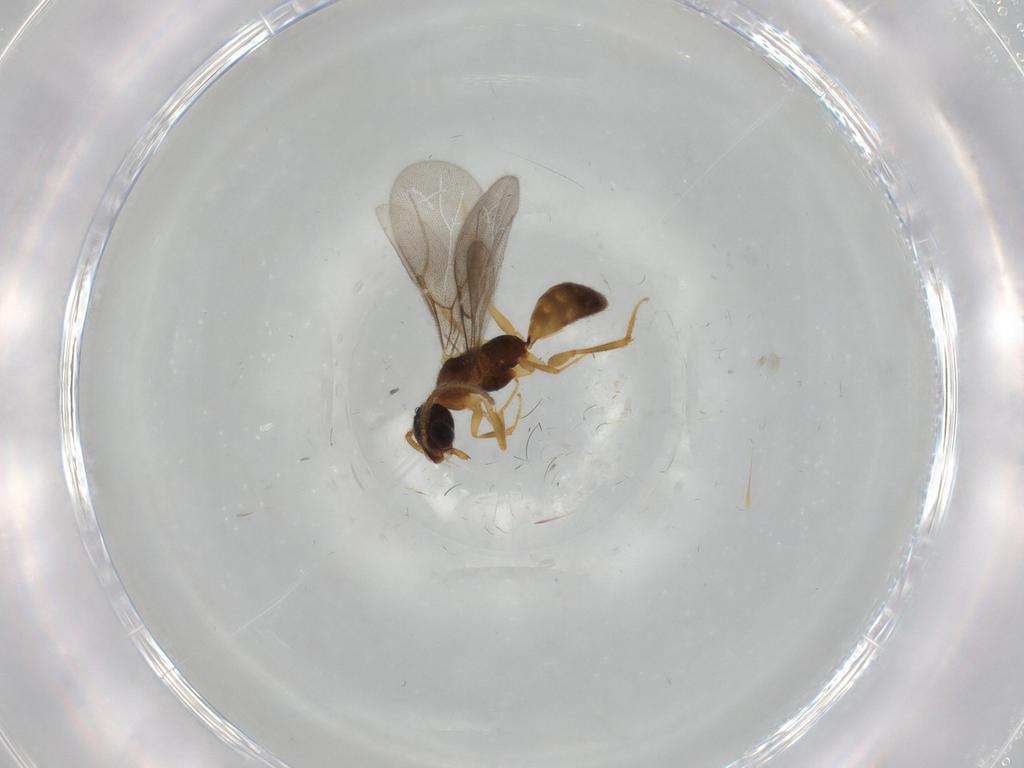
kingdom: Animalia
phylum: Arthropoda
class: Insecta
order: Hymenoptera
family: Bethylidae
